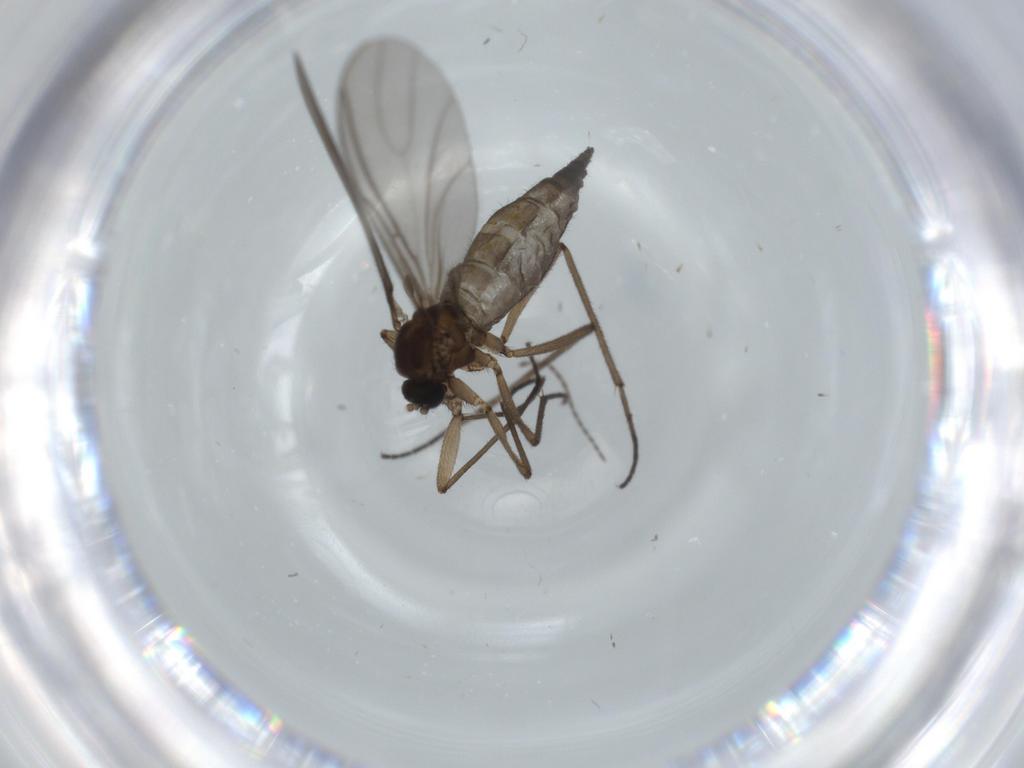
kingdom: Animalia
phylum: Arthropoda
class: Insecta
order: Diptera
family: Sciaridae
